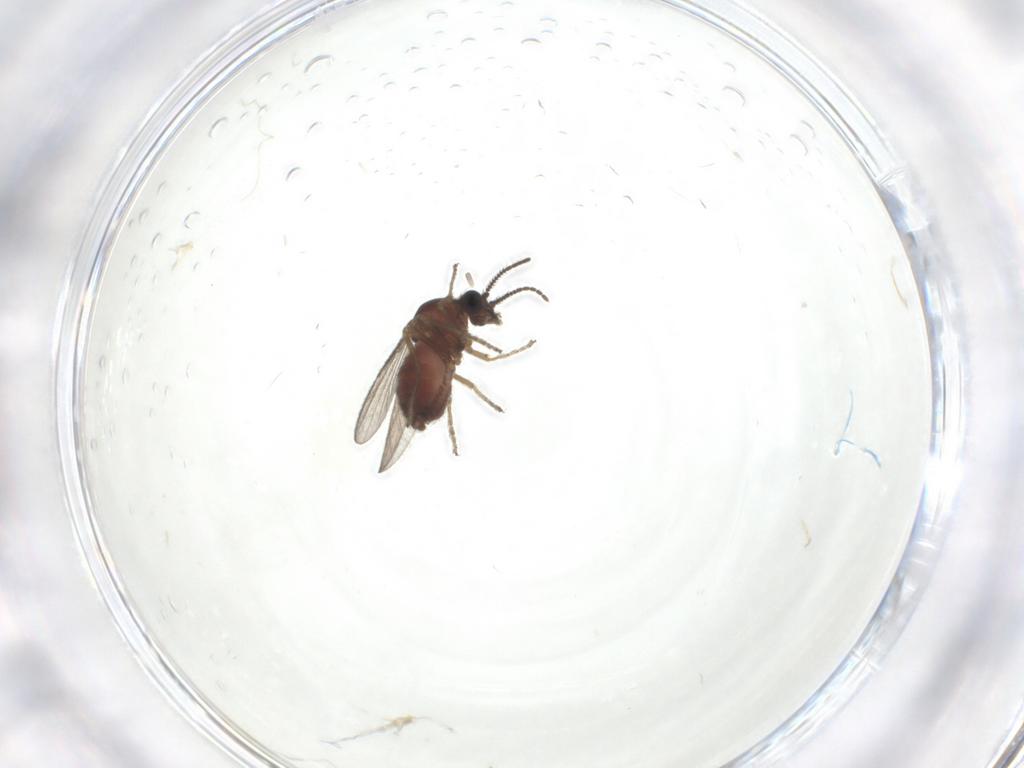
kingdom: Animalia
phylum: Arthropoda
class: Insecta
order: Diptera
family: Ceratopogonidae
